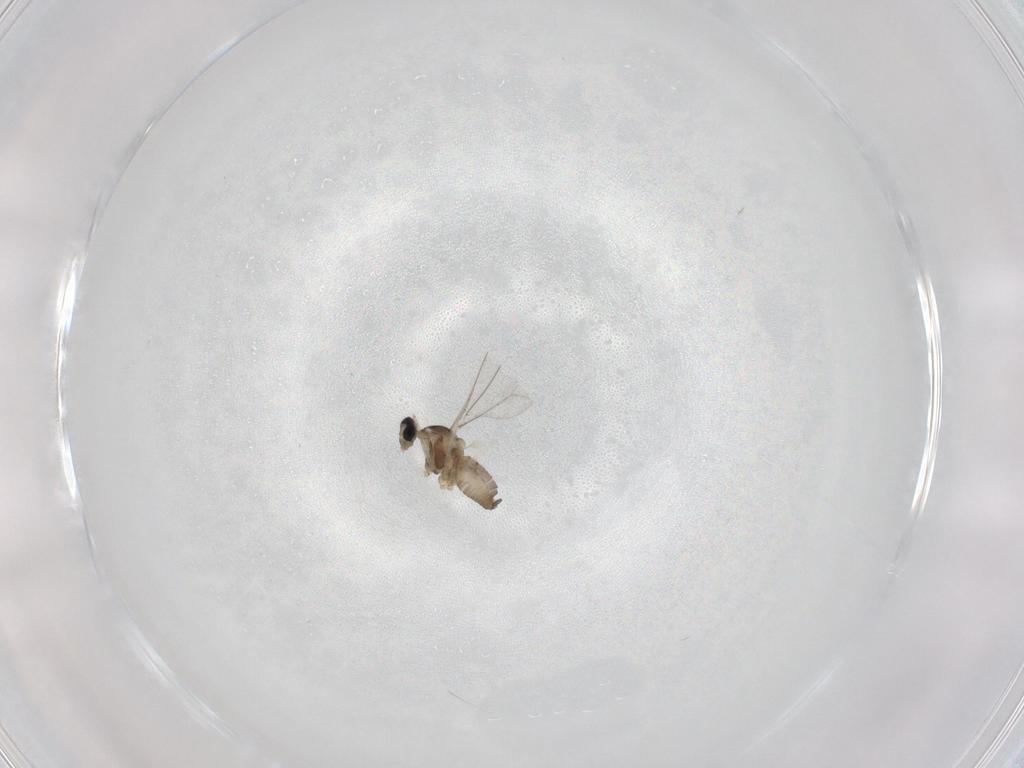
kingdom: Animalia
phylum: Arthropoda
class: Insecta
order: Diptera
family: Cecidomyiidae
